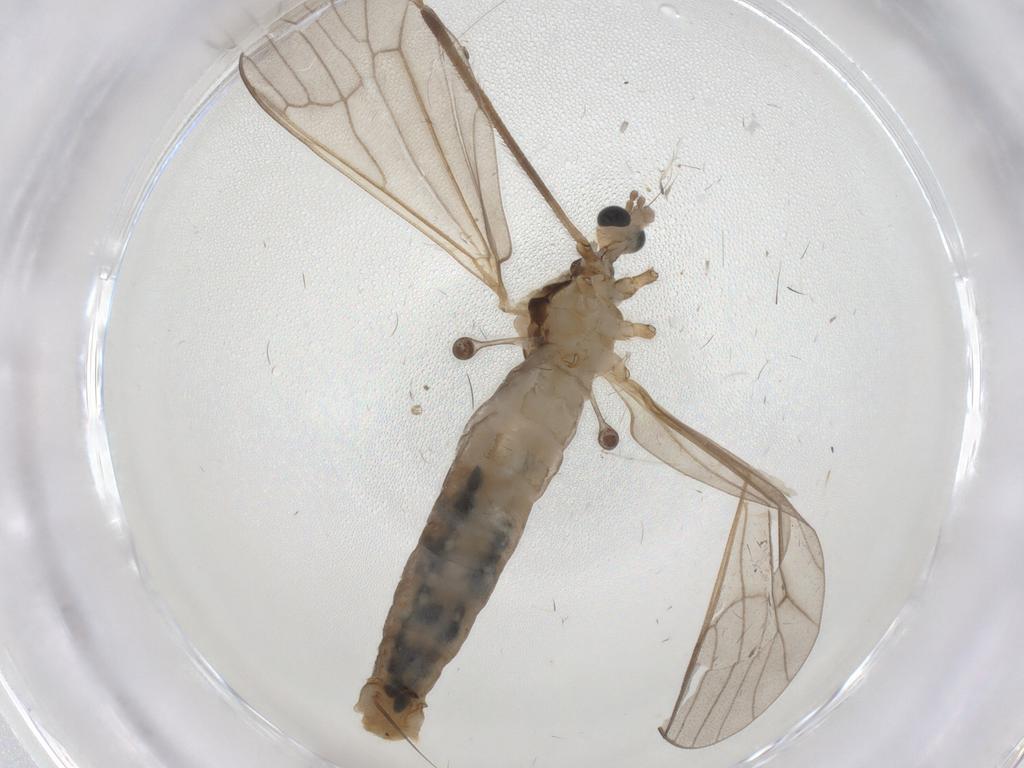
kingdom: Animalia
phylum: Arthropoda
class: Insecta
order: Diptera
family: Limoniidae
